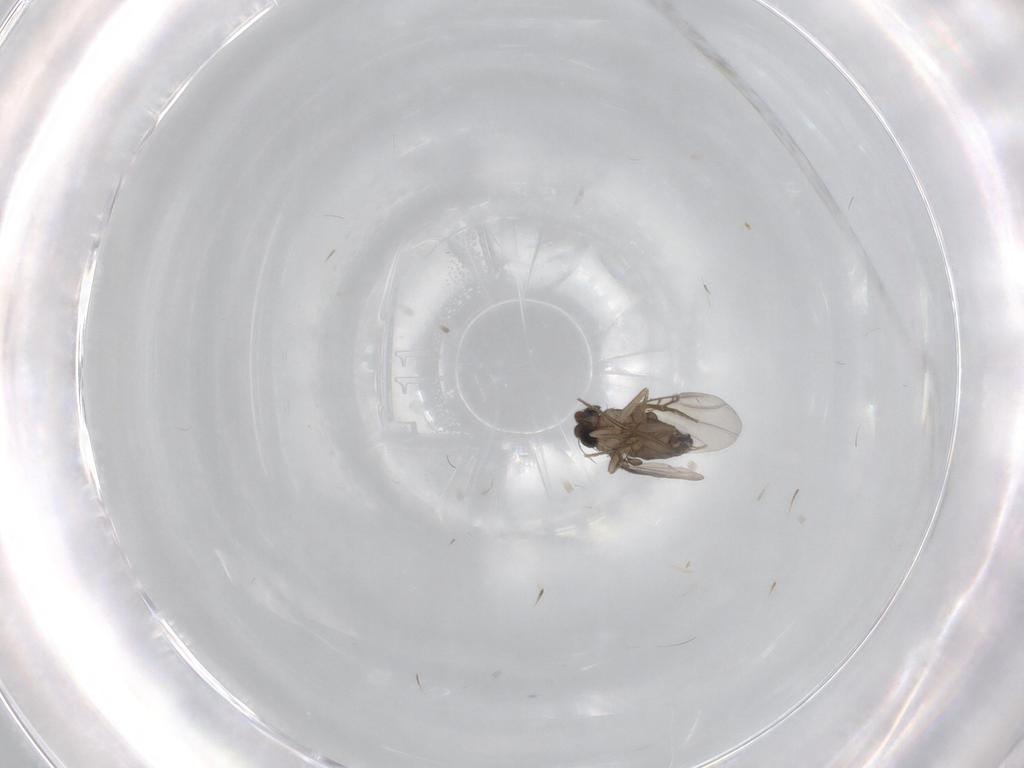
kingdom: Animalia
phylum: Arthropoda
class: Insecta
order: Diptera
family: Phoridae
